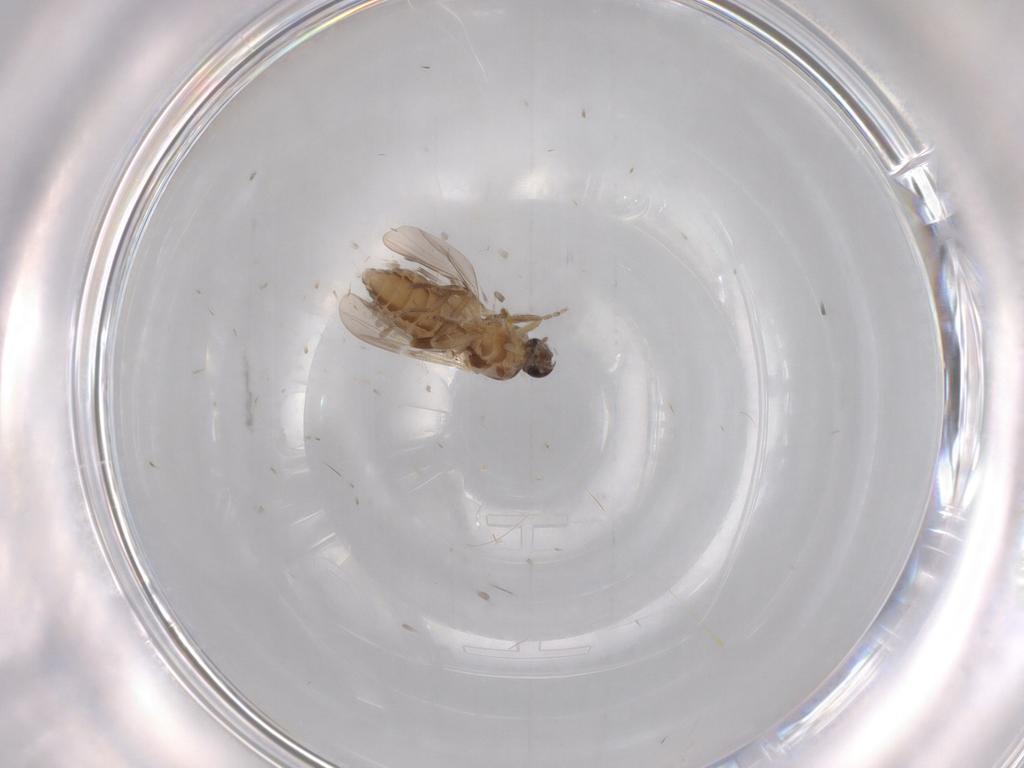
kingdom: Animalia
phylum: Arthropoda
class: Insecta
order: Diptera
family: Ceratopogonidae
